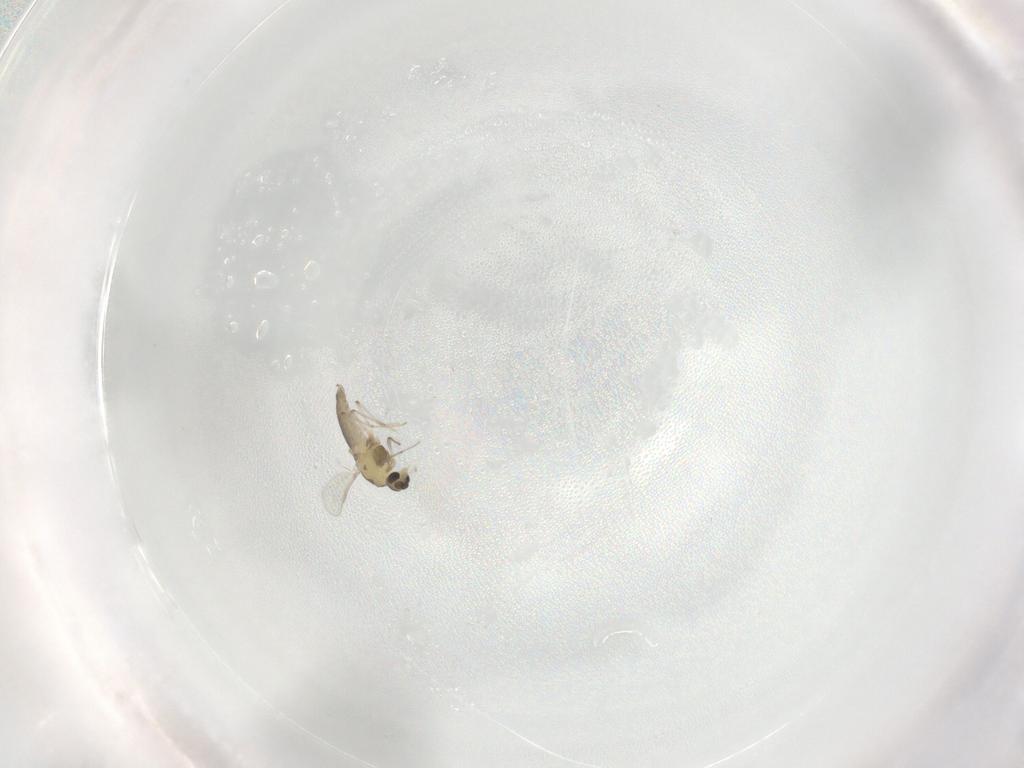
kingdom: Animalia
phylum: Arthropoda
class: Insecta
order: Diptera
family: Chironomidae
